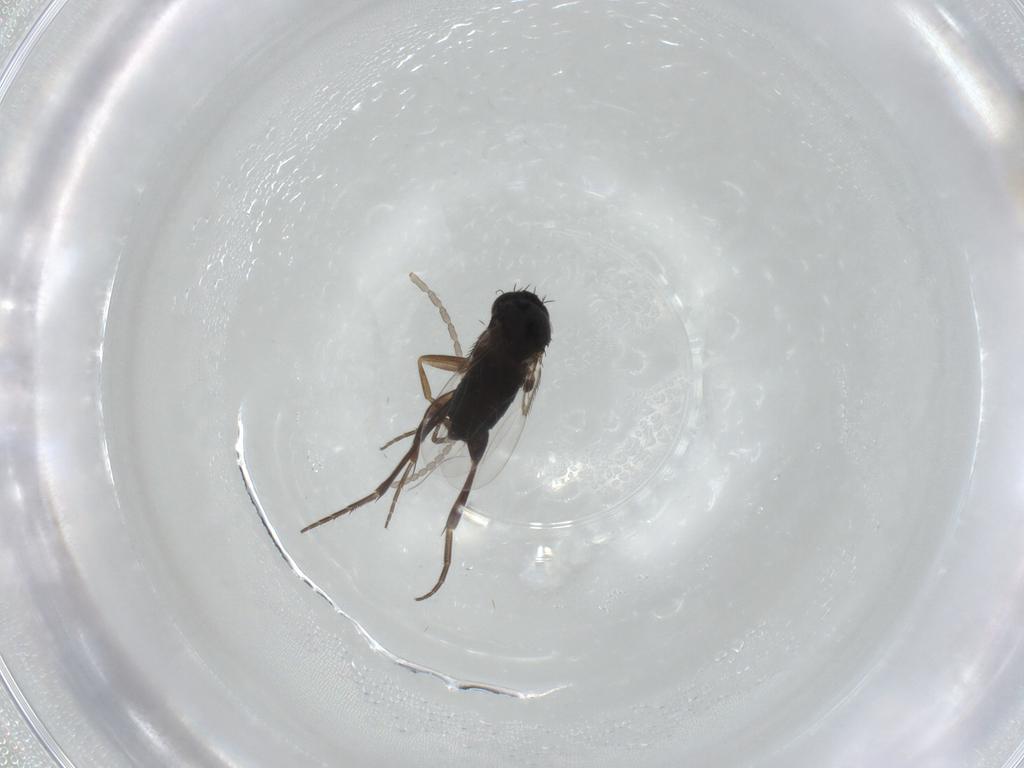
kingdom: Animalia
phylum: Arthropoda
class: Insecta
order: Diptera
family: Phoridae
